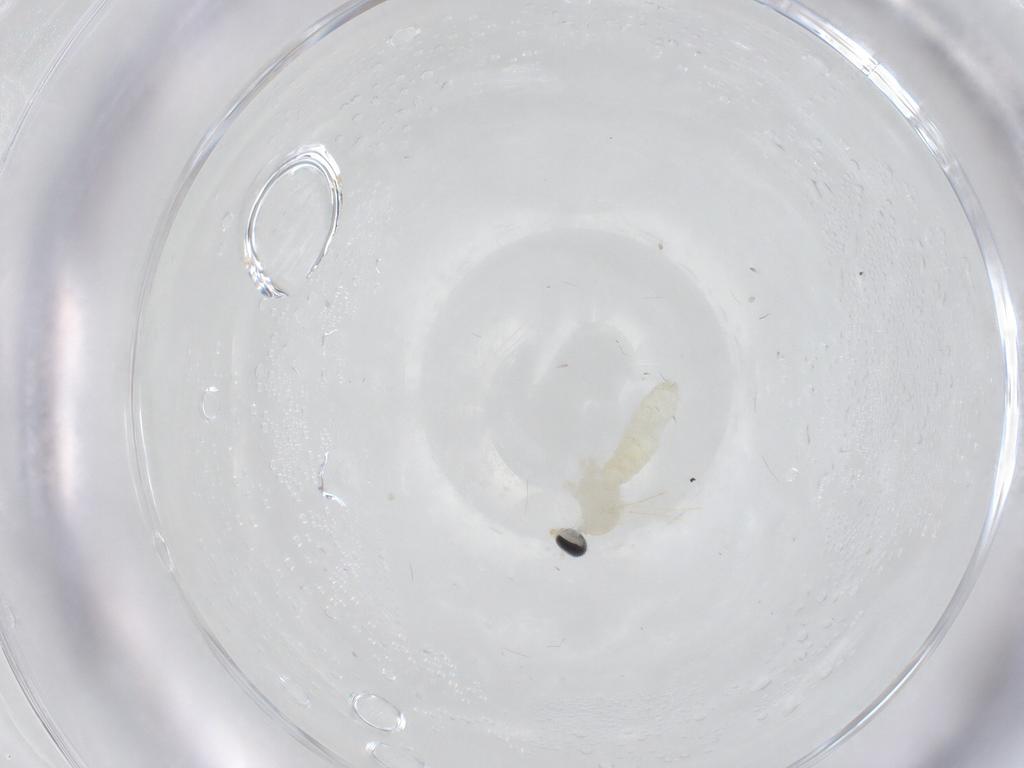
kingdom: Animalia
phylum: Arthropoda
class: Insecta
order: Diptera
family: Cecidomyiidae
